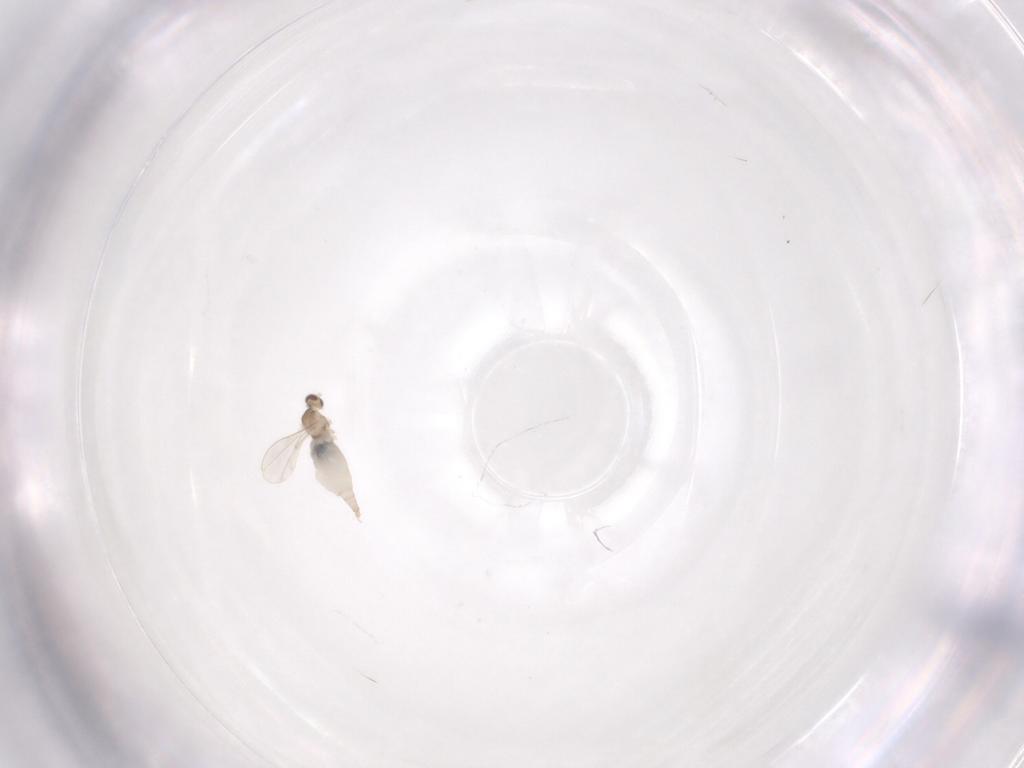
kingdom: Animalia
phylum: Arthropoda
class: Insecta
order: Diptera
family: Cecidomyiidae
